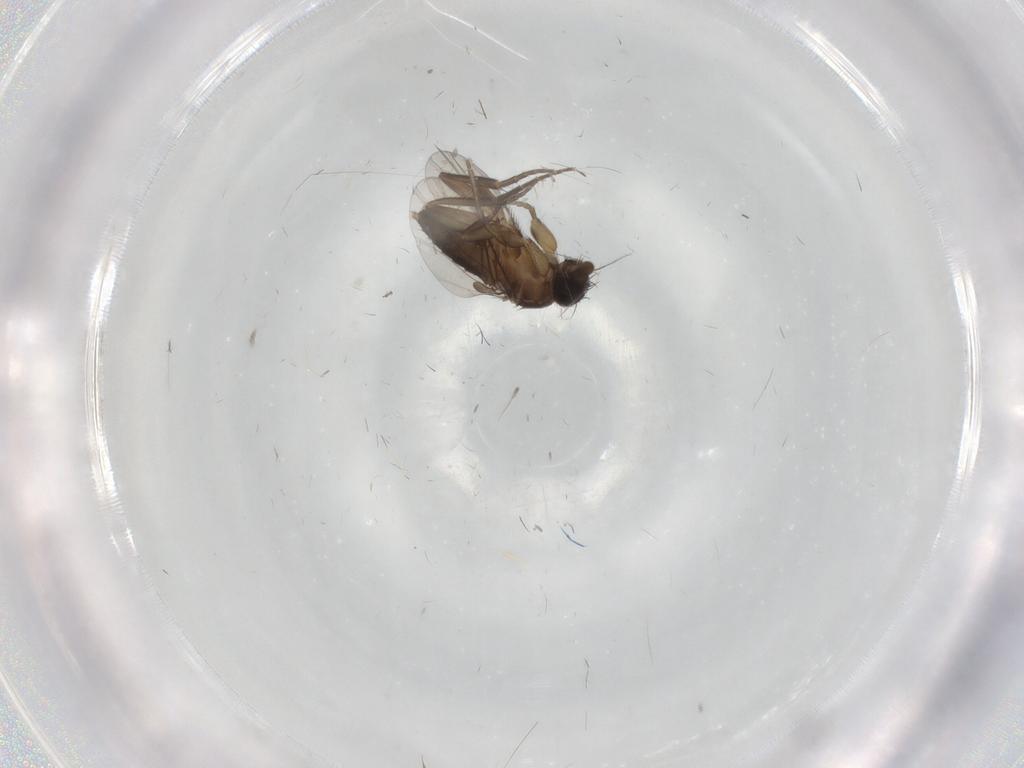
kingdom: Animalia
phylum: Arthropoda
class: Insecta
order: Diptera
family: Phoridae
